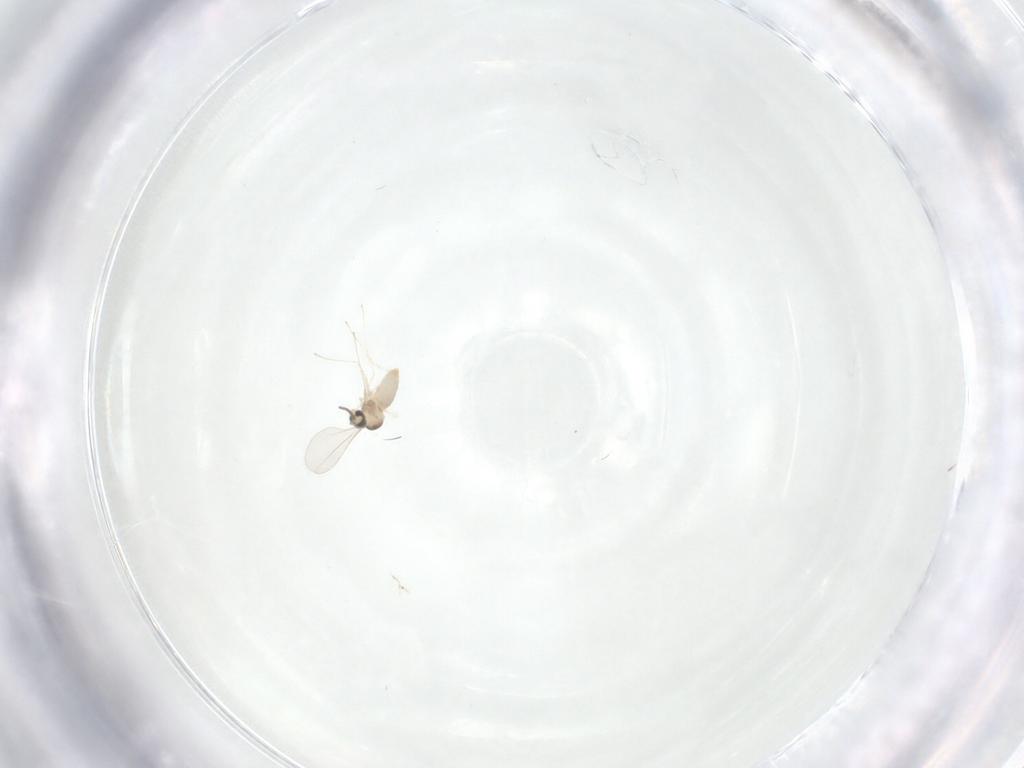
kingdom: Animalia
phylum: Arthropoda
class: Insecta
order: Diptera
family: Cecidomyiidae
